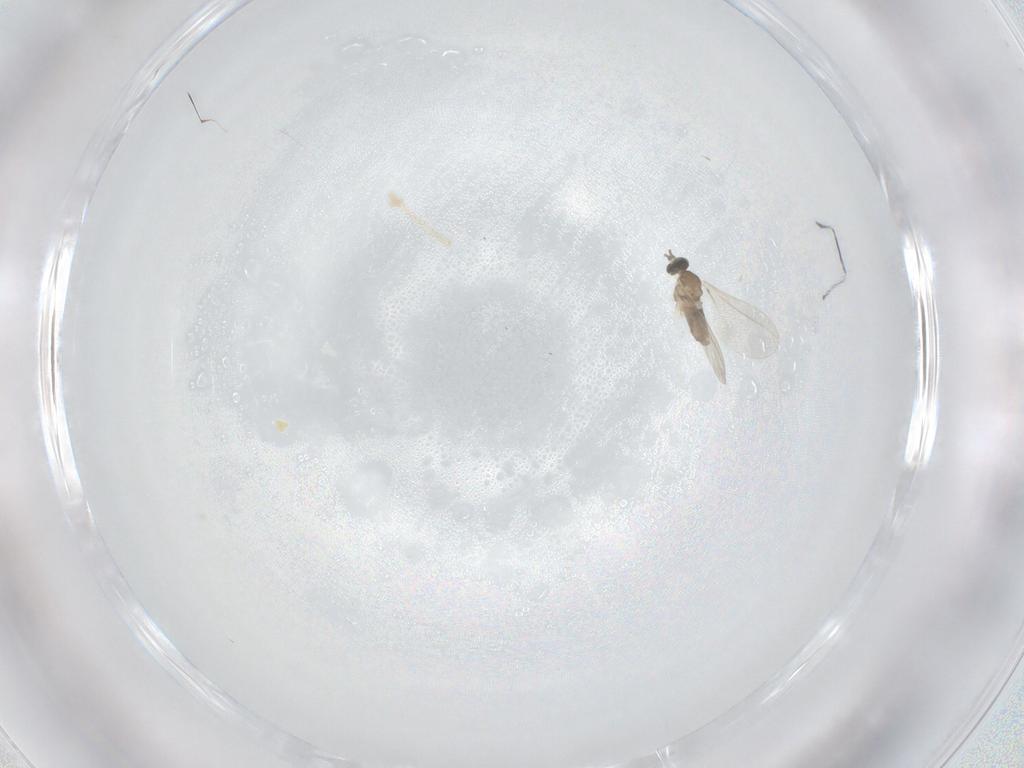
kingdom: Animalia
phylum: Arthropoda
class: Insecta
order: Diptera
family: Cecidomyiidae
